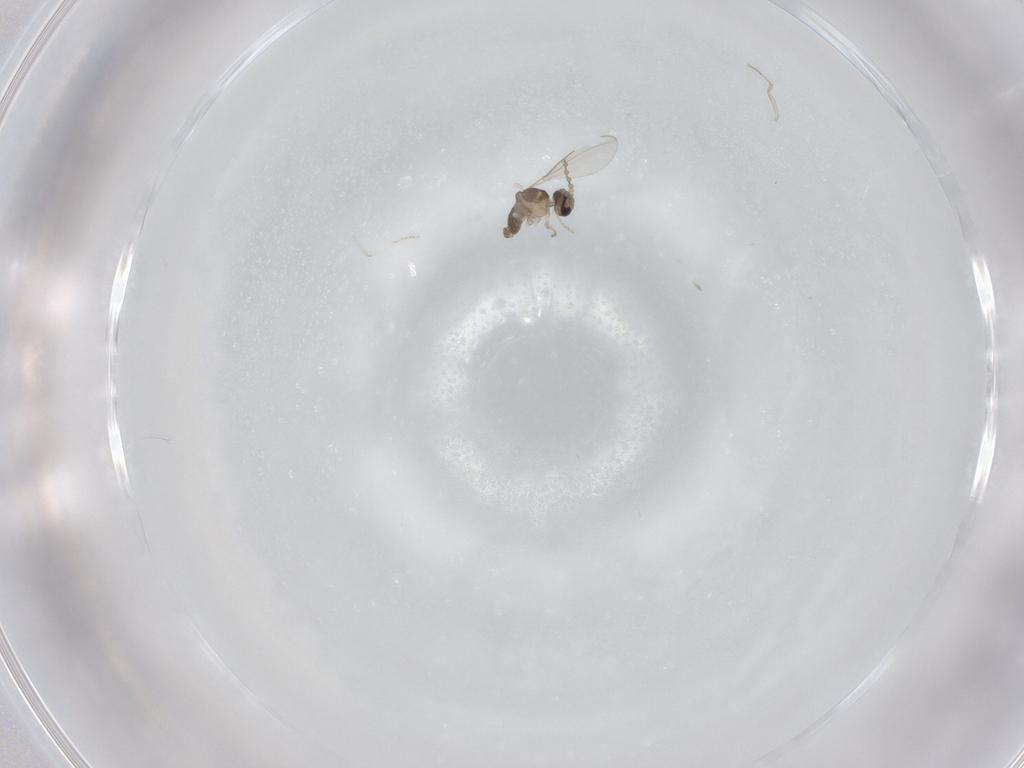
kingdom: Animalia
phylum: Arthropoda
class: Insecta
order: Diptera
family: Cecidomyiidae
